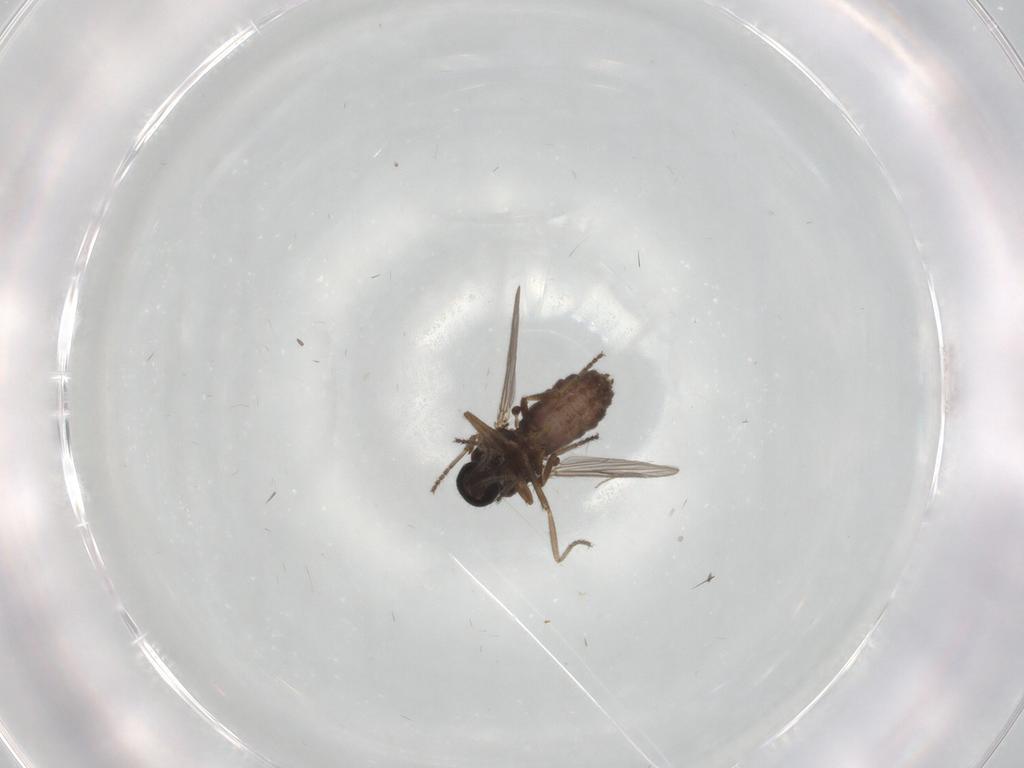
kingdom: Animalia
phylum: Arthropoda
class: Insecta
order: Diptera
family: Ceratopogonidae
